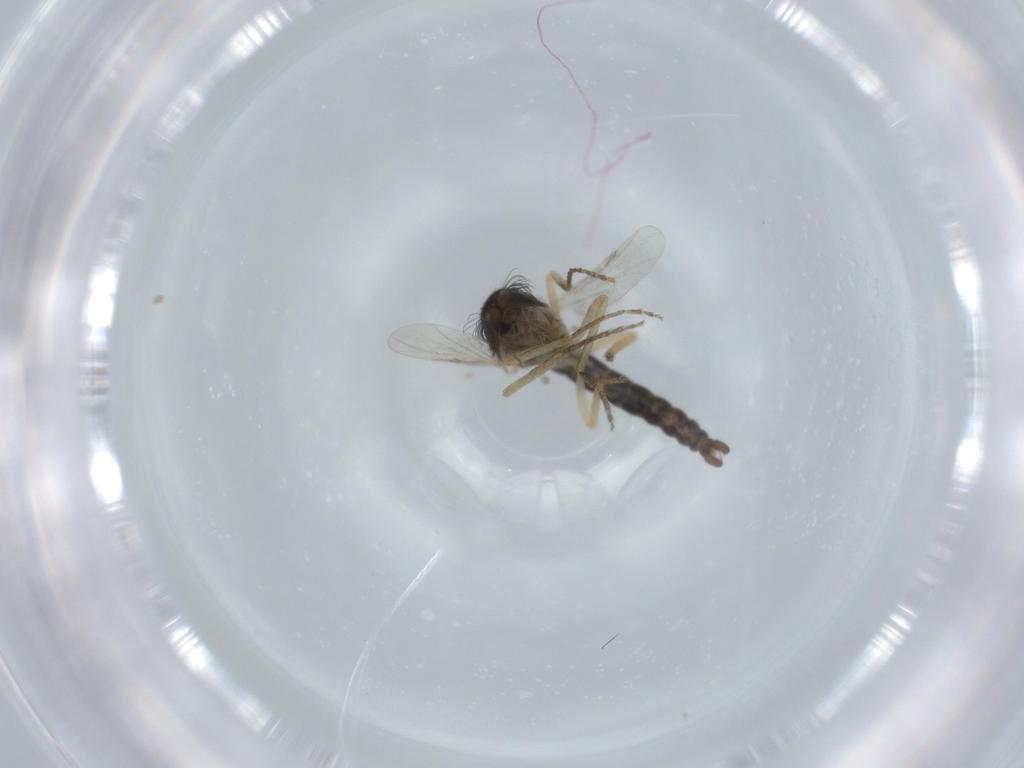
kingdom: Animalia
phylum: Arthropoda
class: Insecta
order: Diptera
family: Ceratopogonidae
